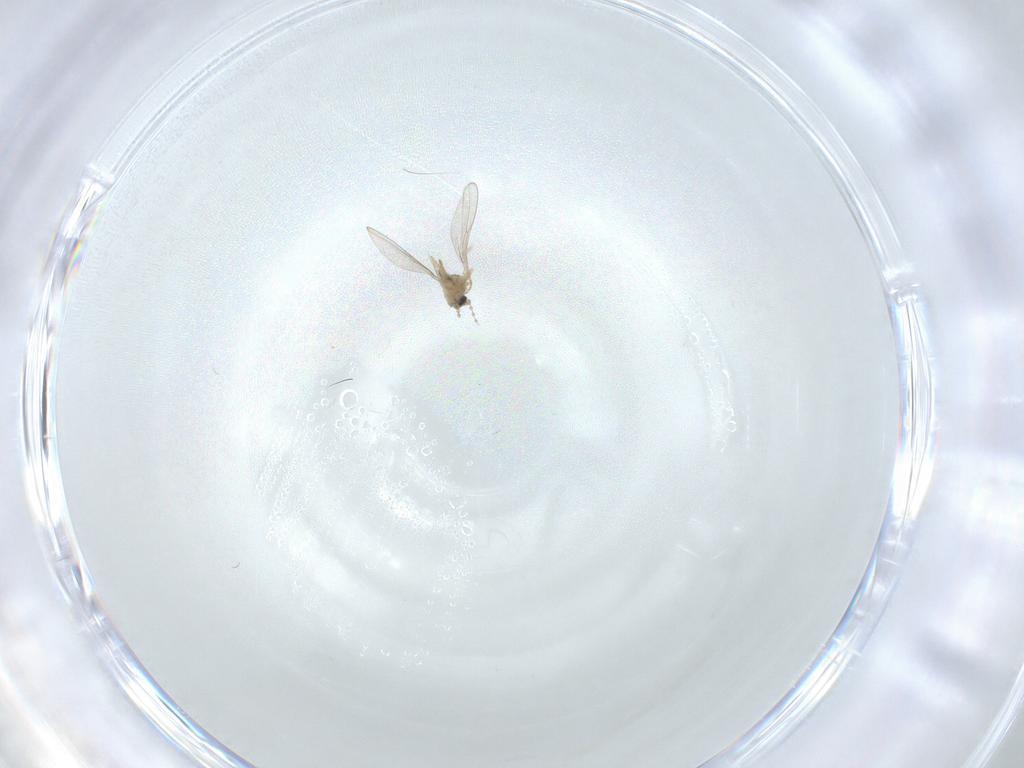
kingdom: Animalia
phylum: Arthropoda
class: Insecta
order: Diptera
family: Cecidomyiidae
